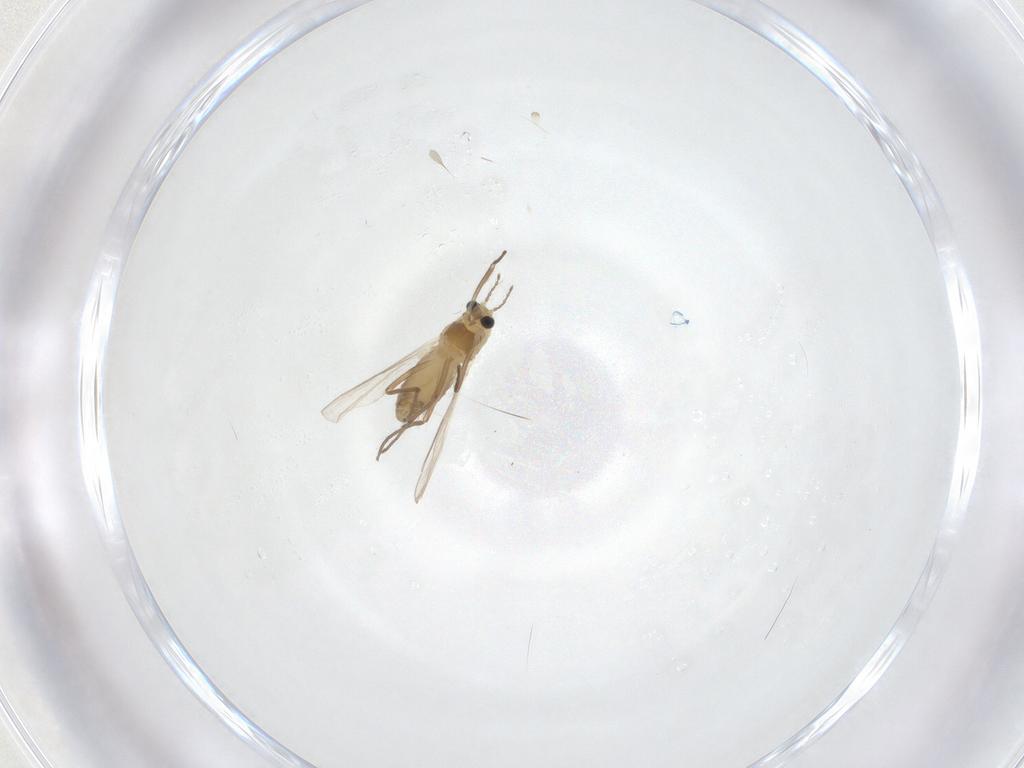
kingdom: Animalia
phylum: Arthropoda
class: Insecta
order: Diptera
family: Chironomidae
